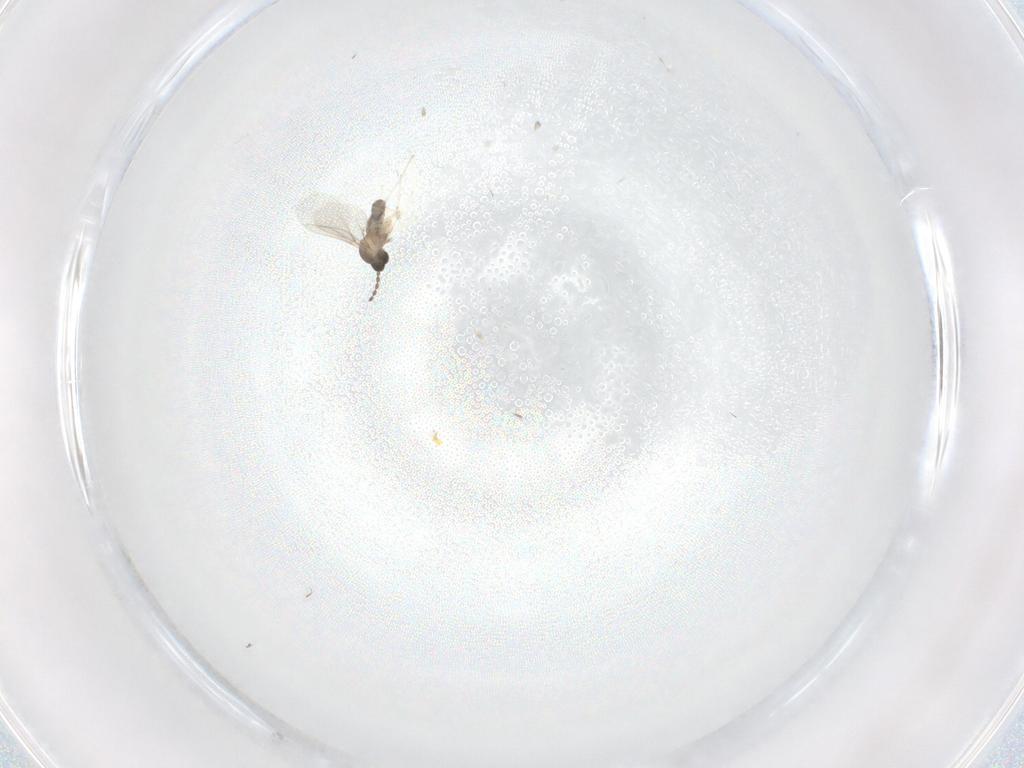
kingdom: Animalia
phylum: Arthropoda
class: Insecta
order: Diptera
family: Cecidomyiidae
